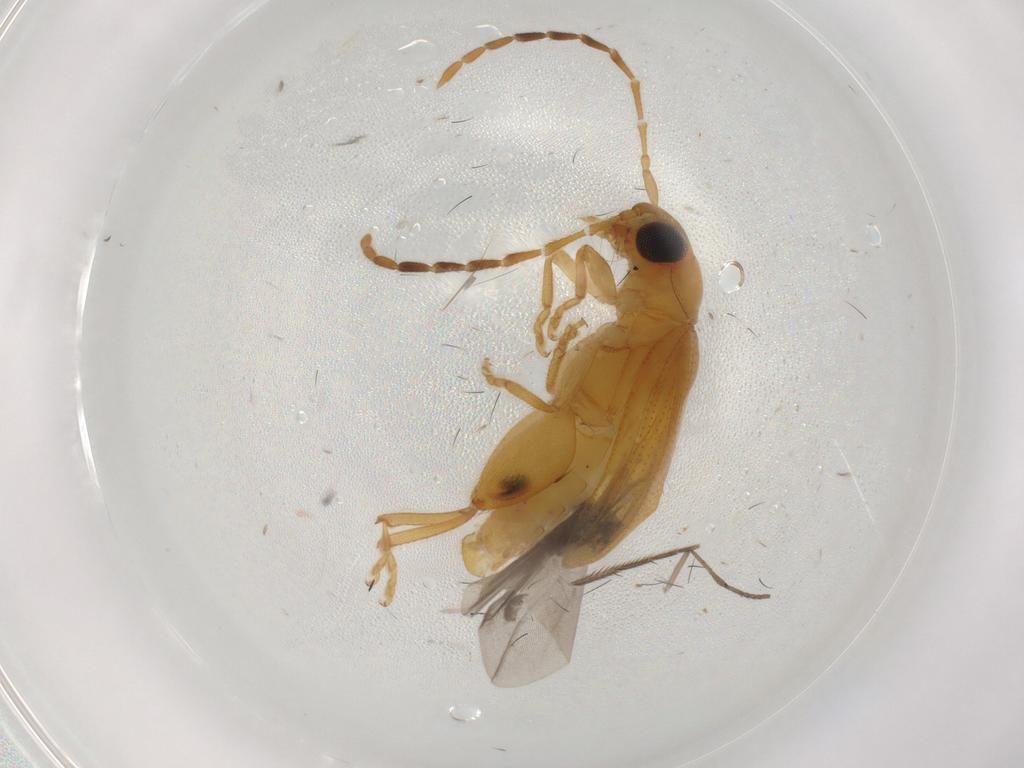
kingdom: Animalia
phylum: Arthropoda
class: Insecta
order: Coleoptera
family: Chrysomelidae
